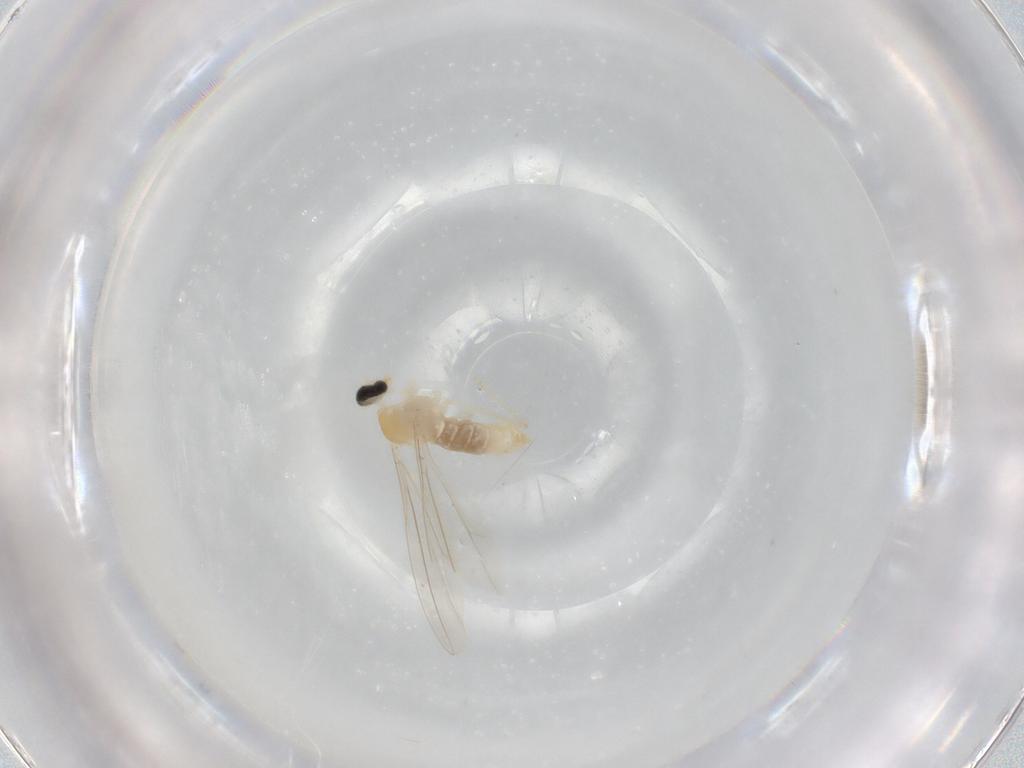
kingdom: Animalia
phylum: Arthropoda
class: Insecta
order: Diptera
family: Cecidomyiidae
